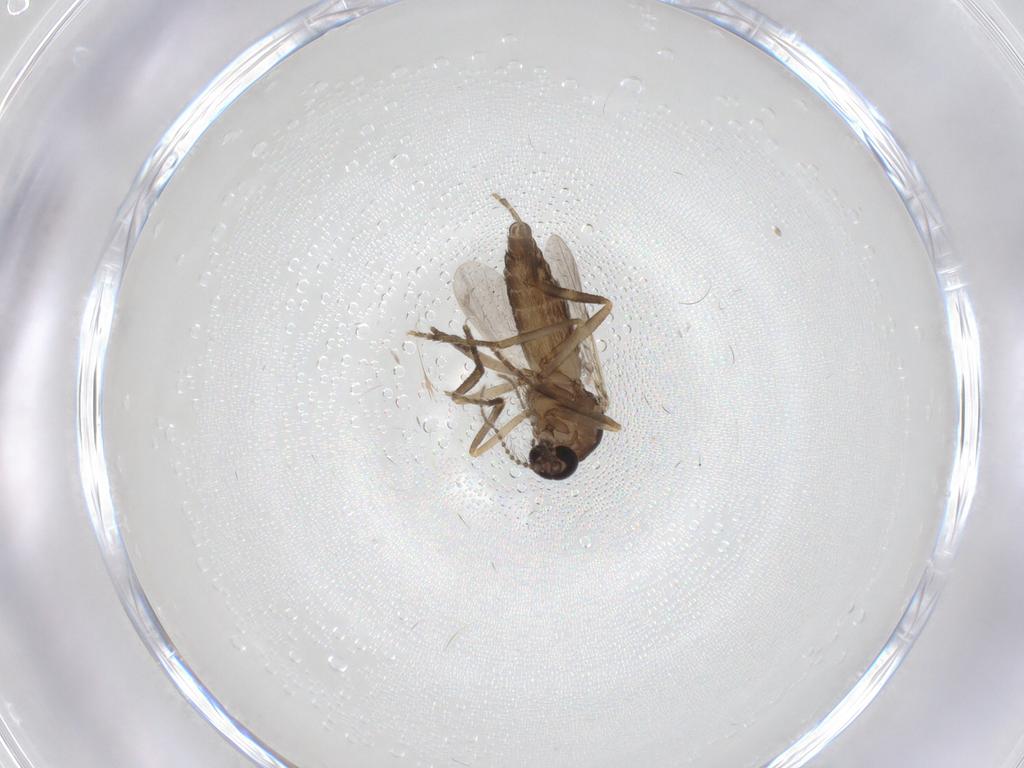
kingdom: Animalia
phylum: Arthropoda
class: Insecta
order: Diptera
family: Ceratopogonidae
